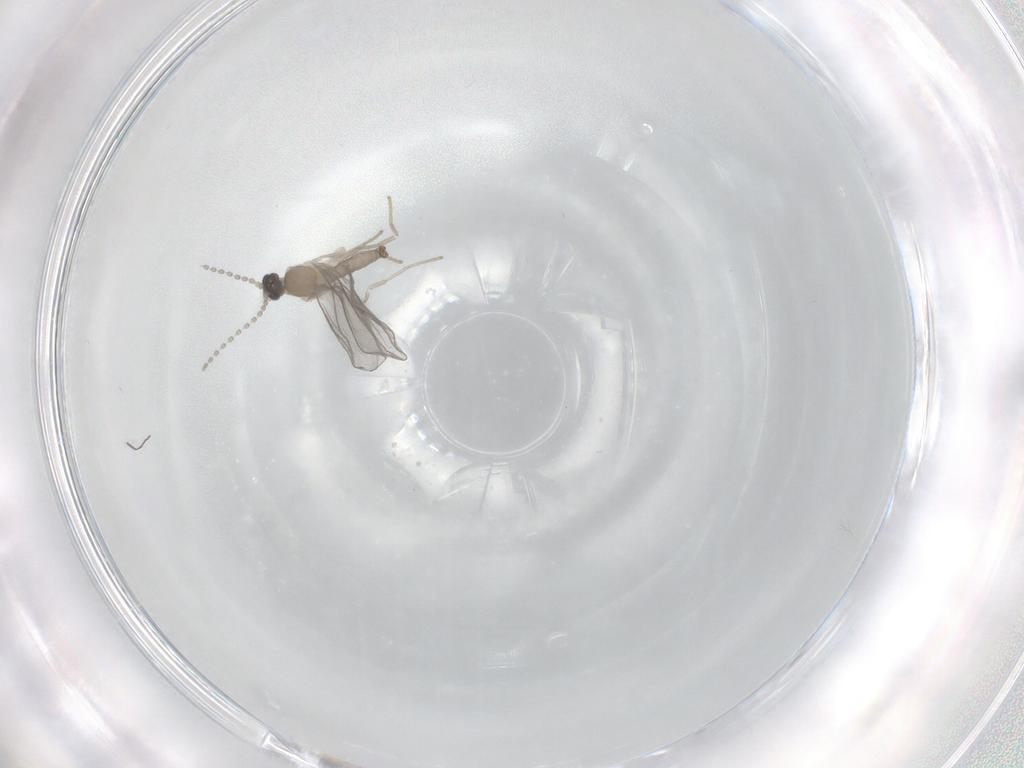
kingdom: Animalia
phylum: Arthropoda
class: Insecta
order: Diptera
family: Cecidomyiidae
